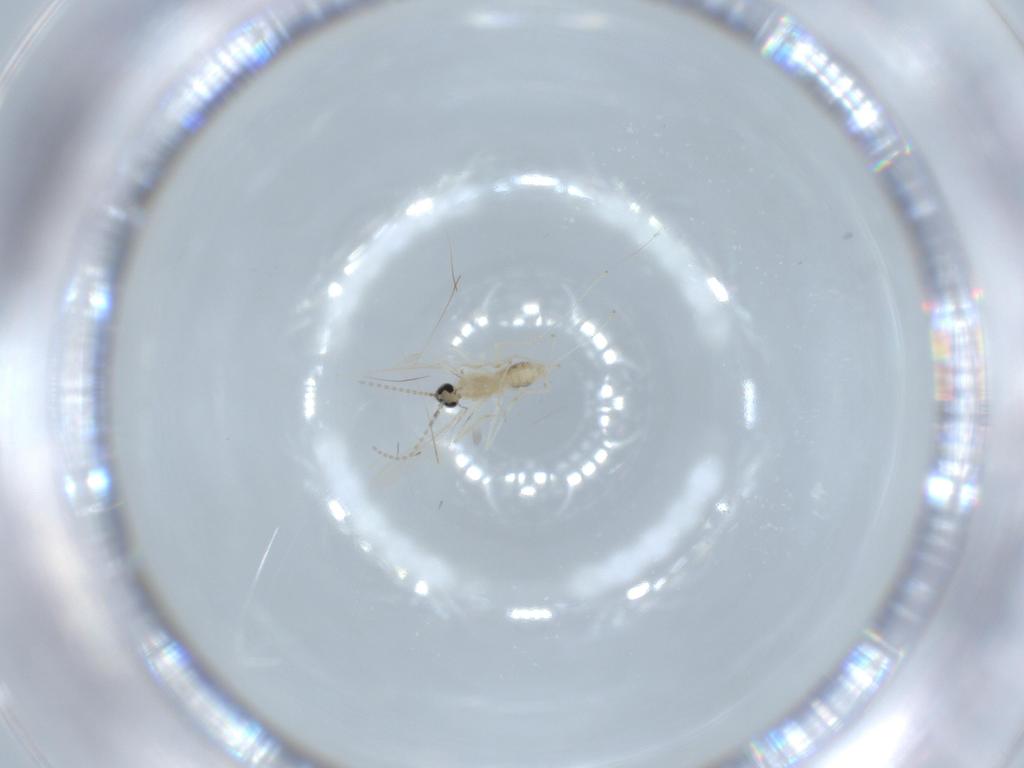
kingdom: Animalia
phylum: Arthropoda
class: Insecta
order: Diptera
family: Cecidomyiidae
